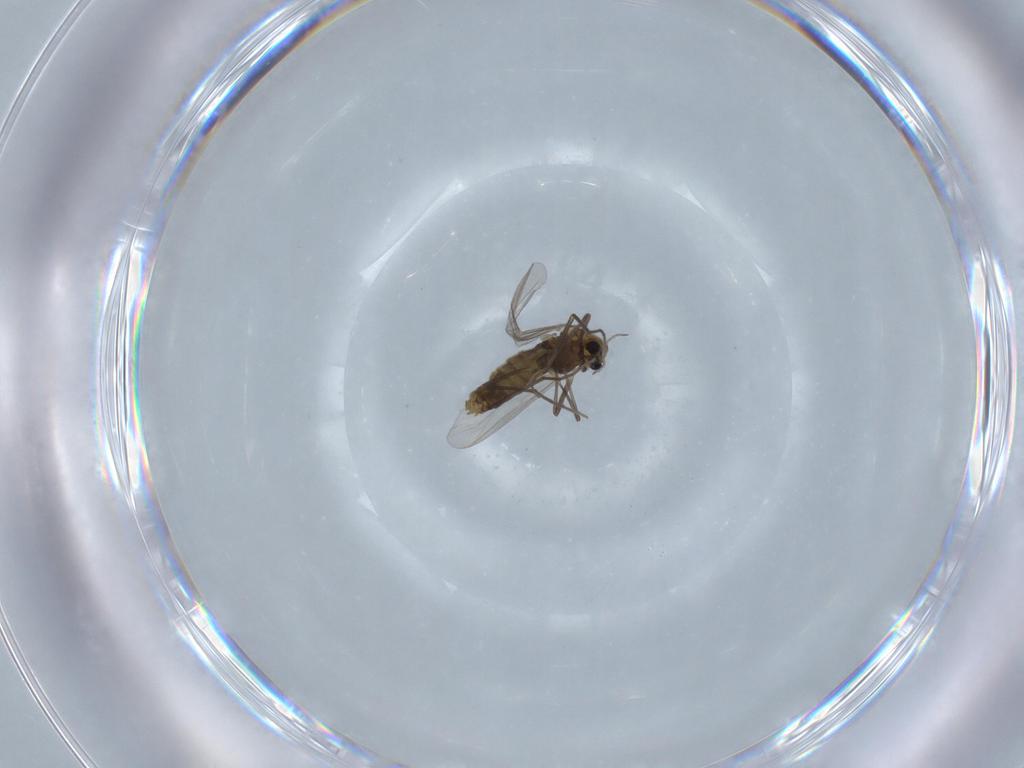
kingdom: Animalia
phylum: Arthropoda
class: Insecta
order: Diptera
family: Chironomidae
